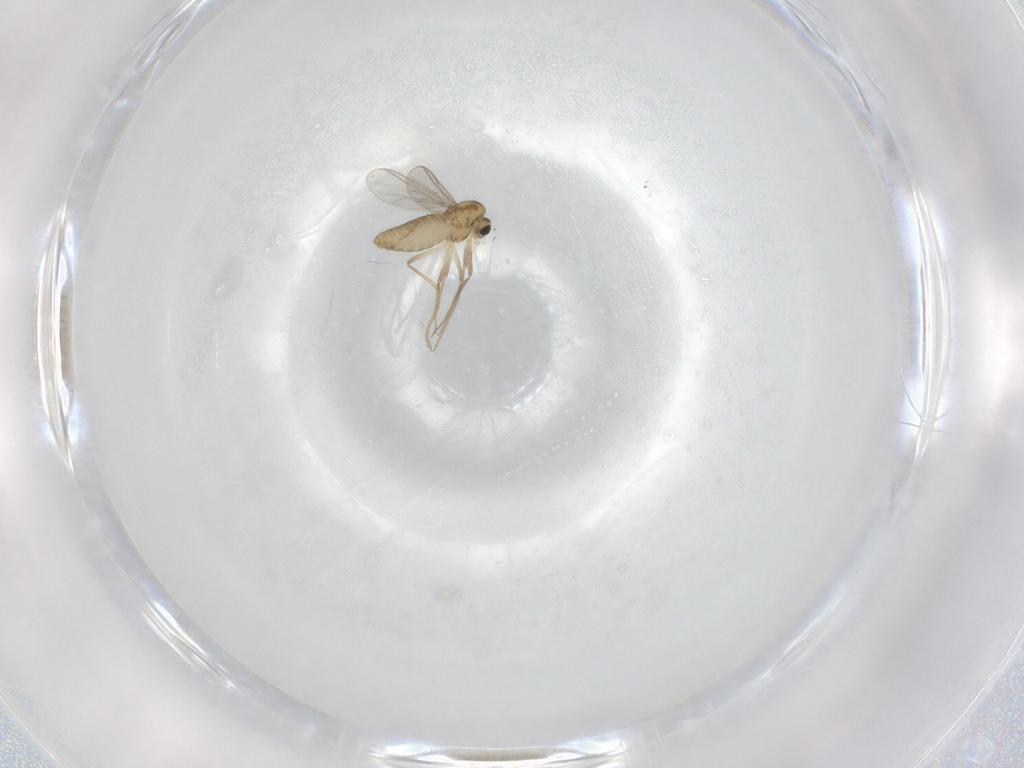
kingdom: Animalia
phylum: Arthropoda
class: Insecta
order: Diptera
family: Chironomidae
